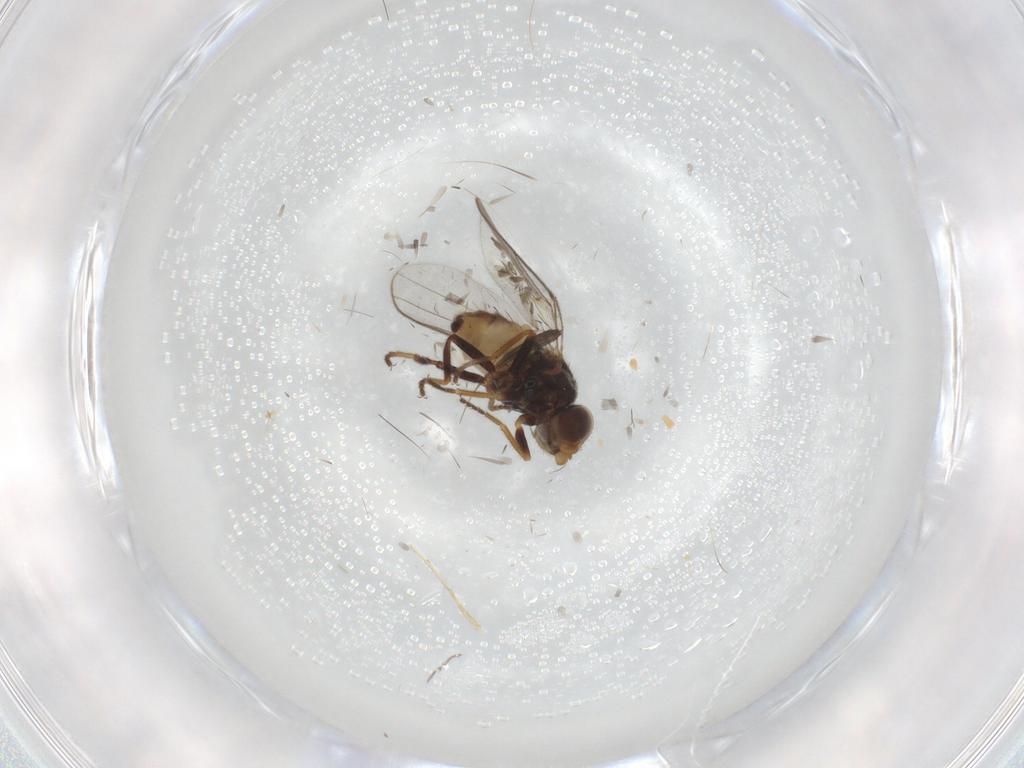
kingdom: Animalia
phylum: Arthropoda
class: Insecta
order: Diptera
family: Chloropidae
